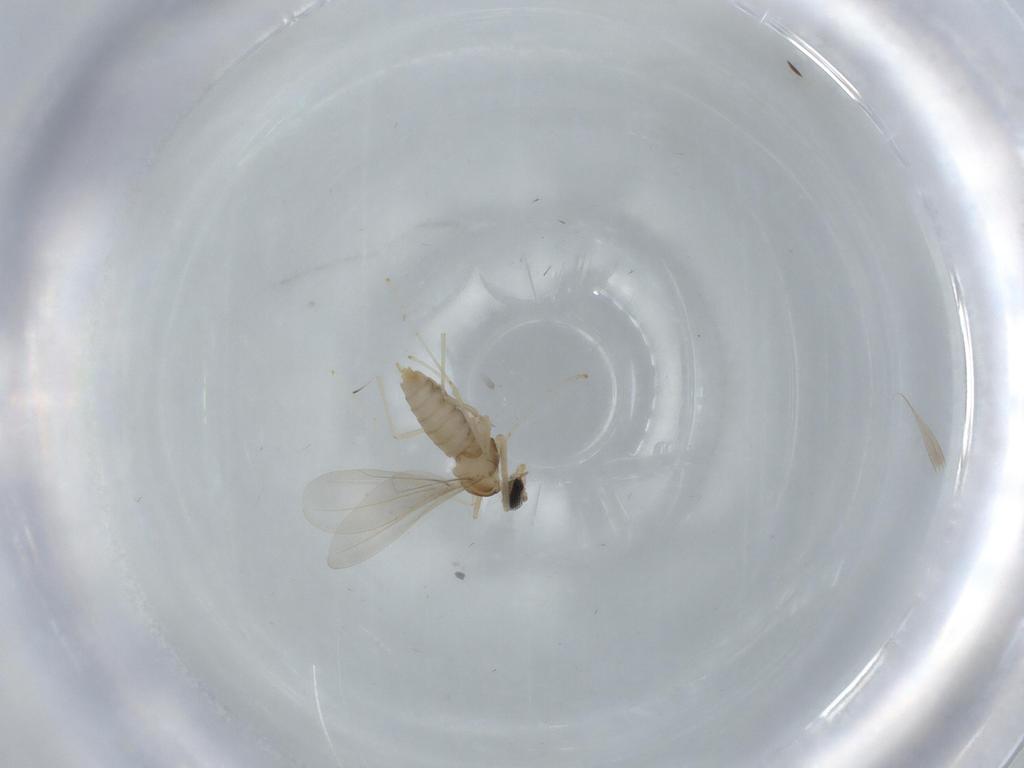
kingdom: Animalia
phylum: Arthropoda
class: Insecta
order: Diptera
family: Cecidomyiidae
